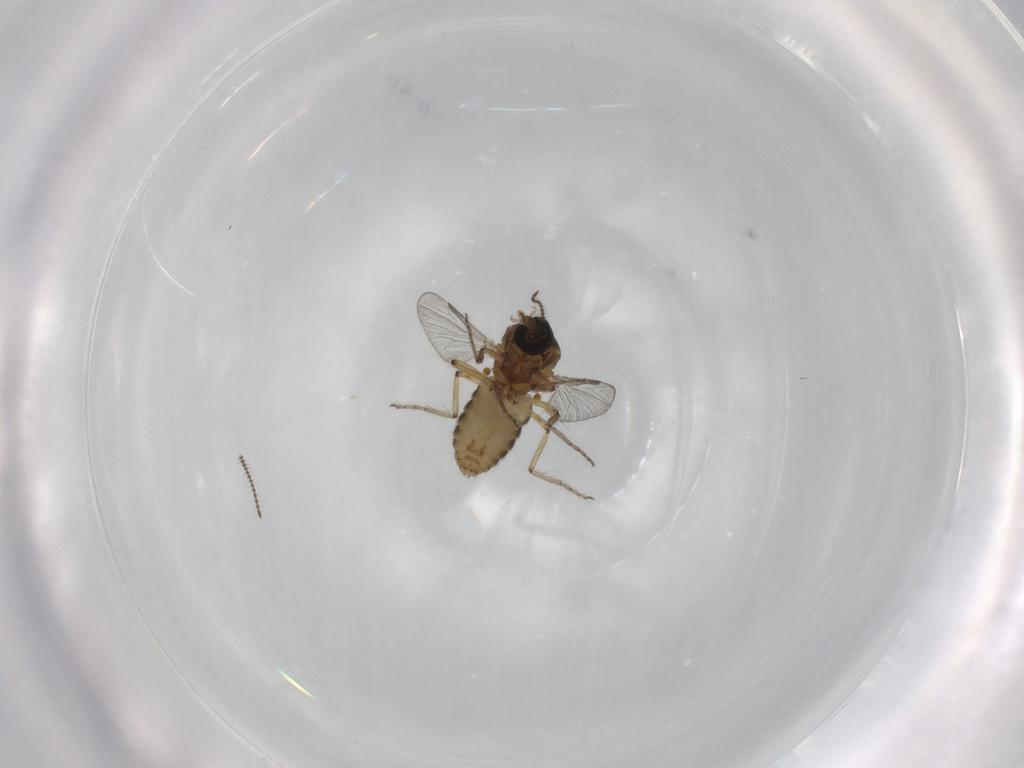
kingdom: Animalia
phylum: Arthropoda
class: Insecta
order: Diptera
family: Ceratopogonidae
